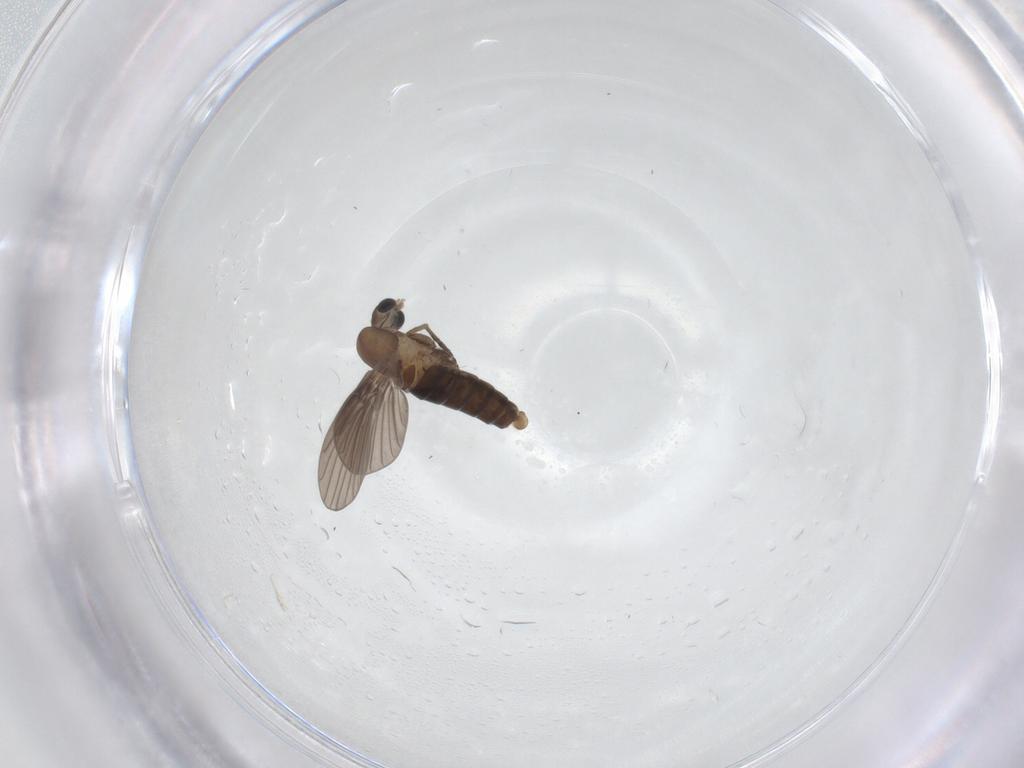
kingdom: Animalia
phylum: Arthropoda
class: Insecta
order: Diptera
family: Psychodidae
